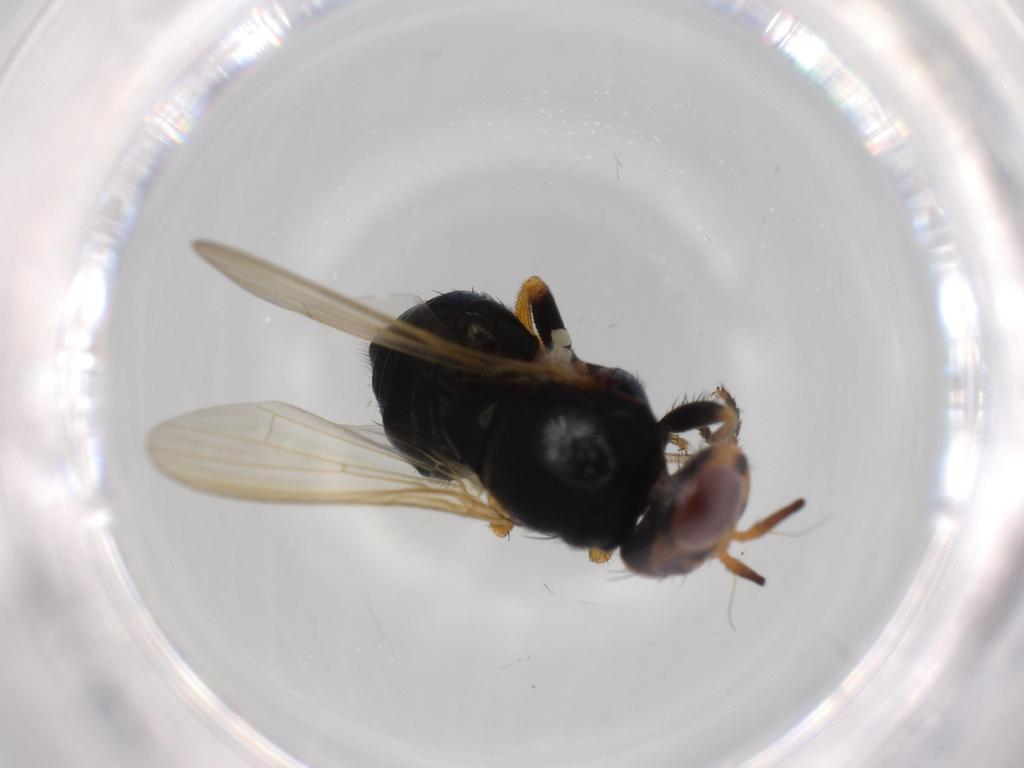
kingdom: Animalia
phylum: Arthropoda
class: Insecta
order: Diptera
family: Lauxaniidae
